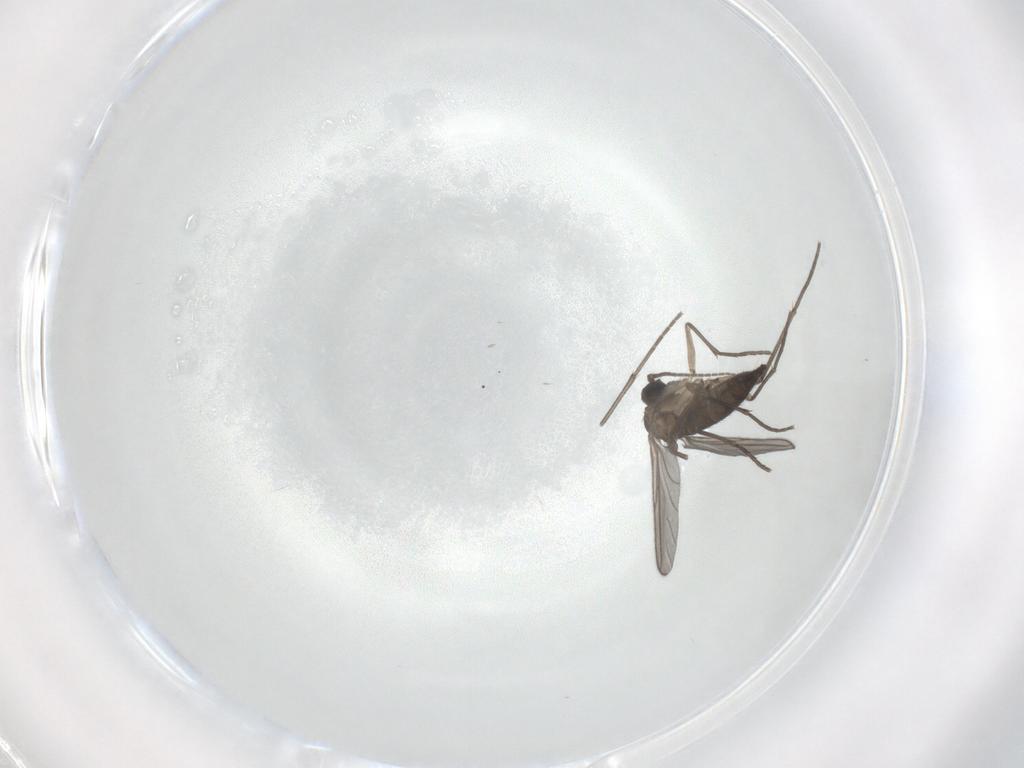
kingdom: Animalia
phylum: Arthropoda
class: Insecta
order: Diptera
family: Sciaridae
